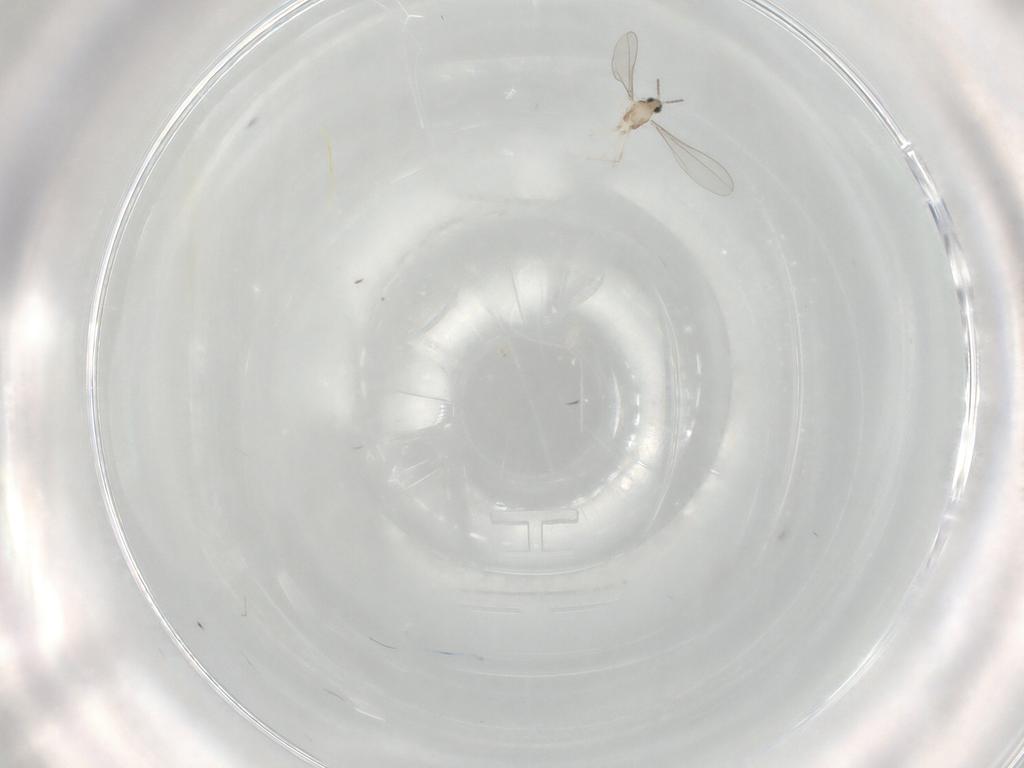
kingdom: Animalia
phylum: Arthropoda
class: Insecta
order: Diptera
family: Cecidomyiidae
